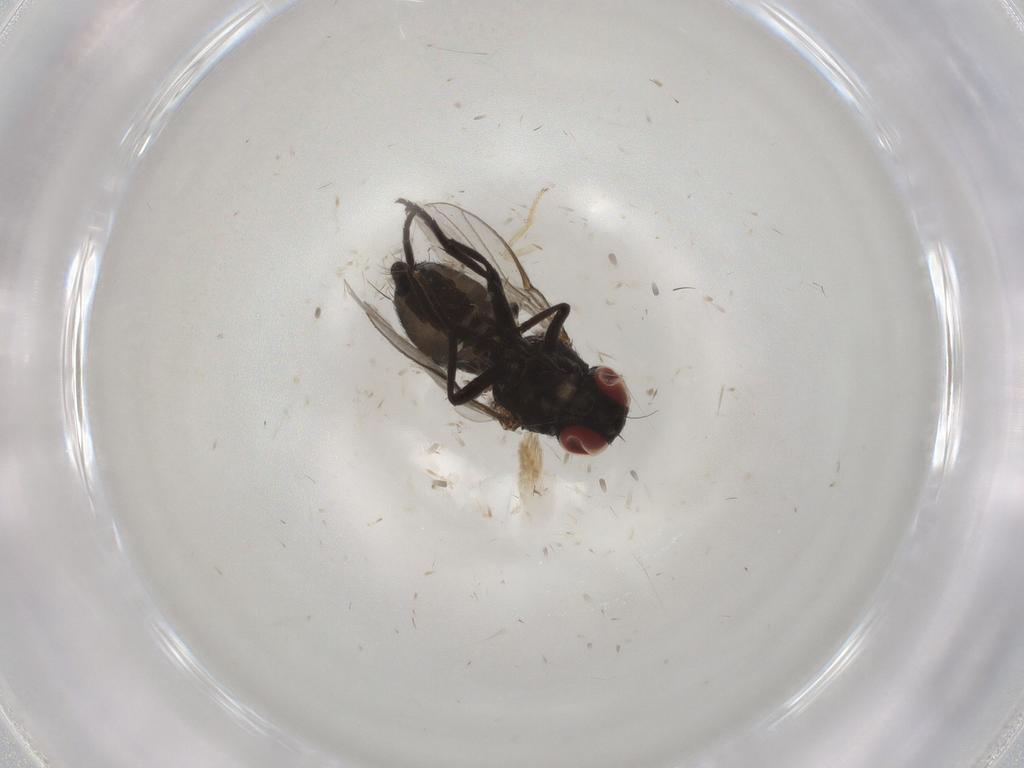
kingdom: Animalia
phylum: Arthropoda
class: Insecta
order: Diptera
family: Agromyzidae
